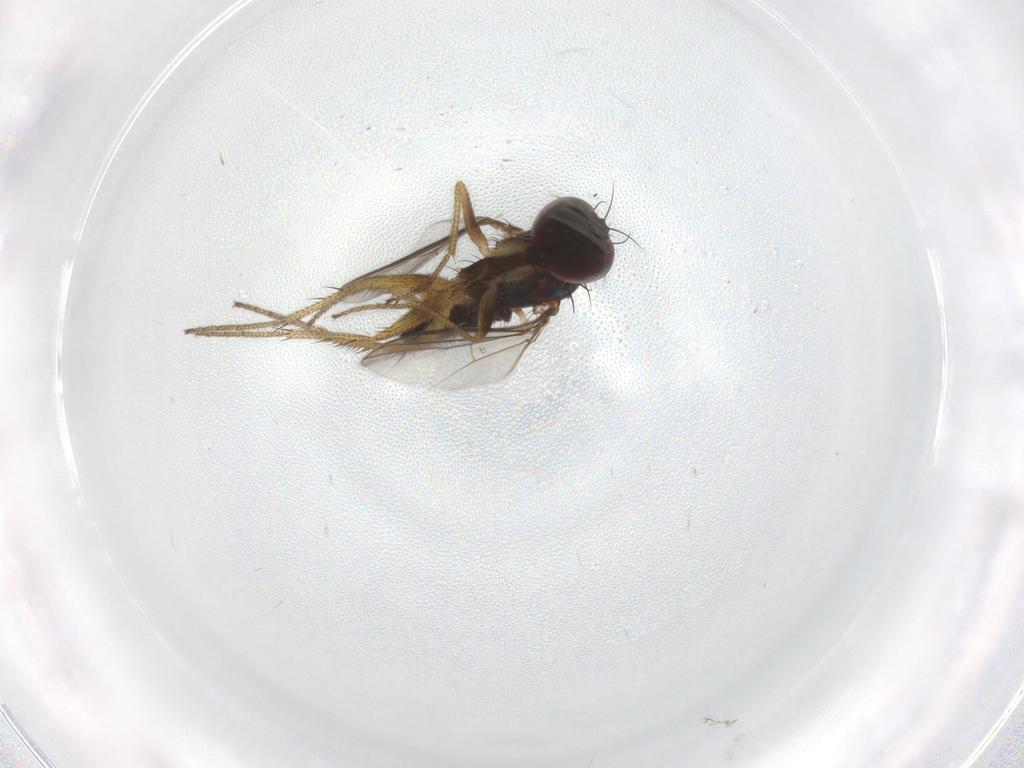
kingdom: Animalia
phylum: Arthropoda
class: Insecta
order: Diptera
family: Dolichopodidae
